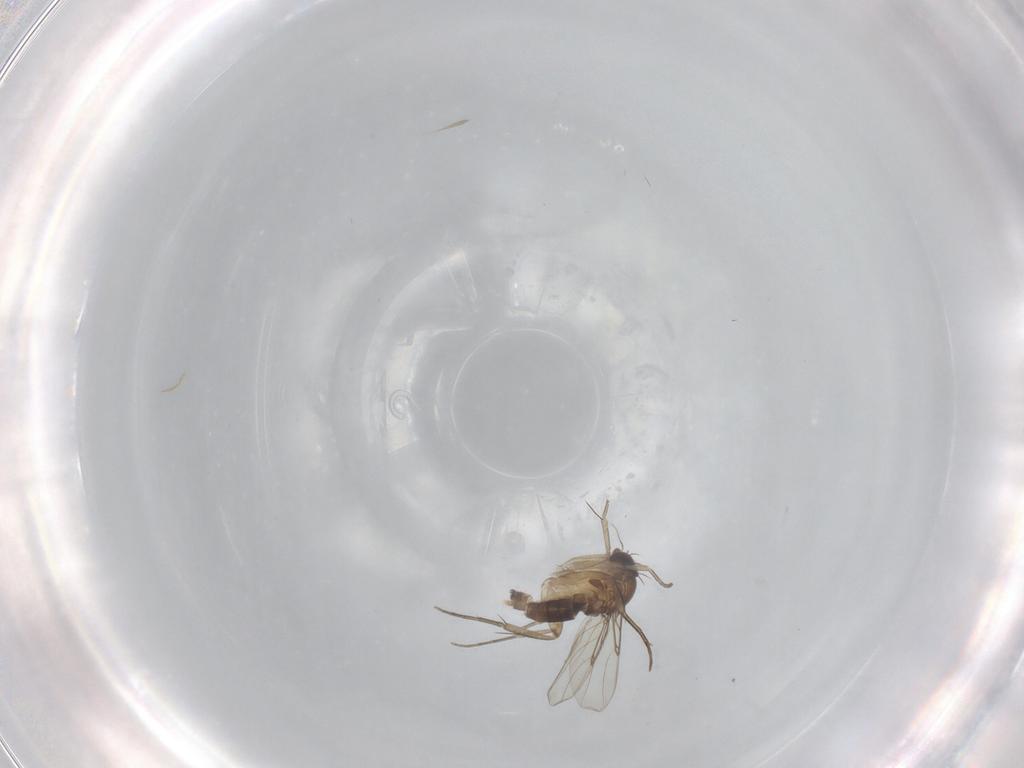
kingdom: Animalia
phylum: Arthropoda
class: Insecta
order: Diptera
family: Phoridae
